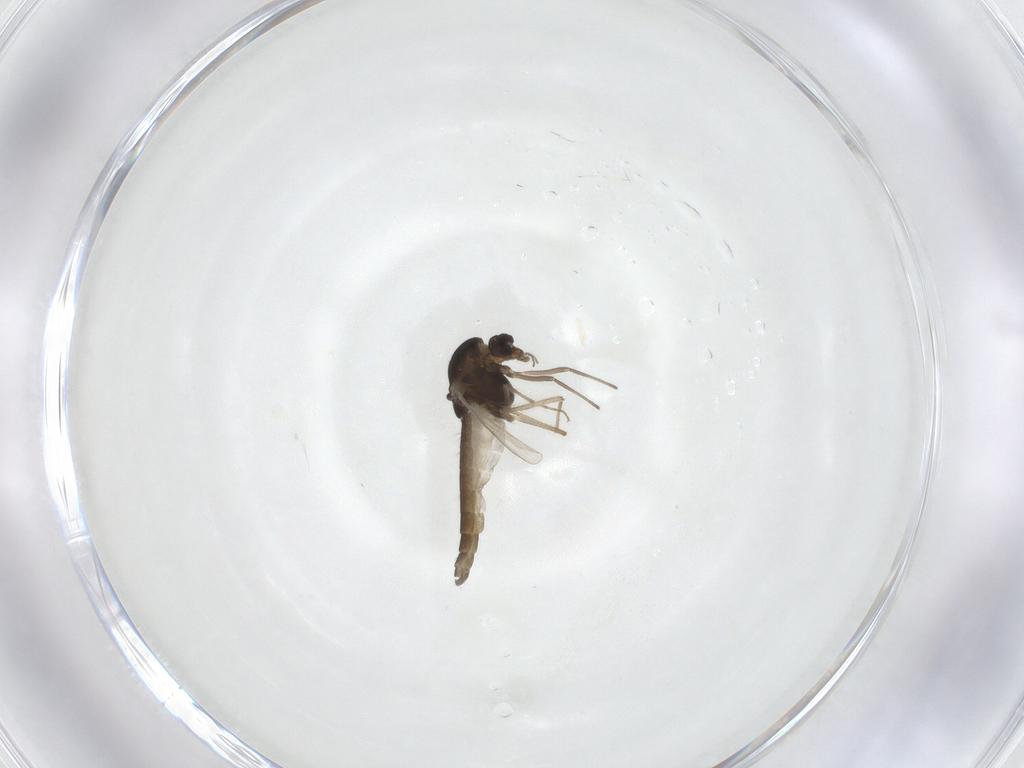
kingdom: Animalia
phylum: Arthropoda
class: Insecta
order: Diptera
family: Chironomidae
